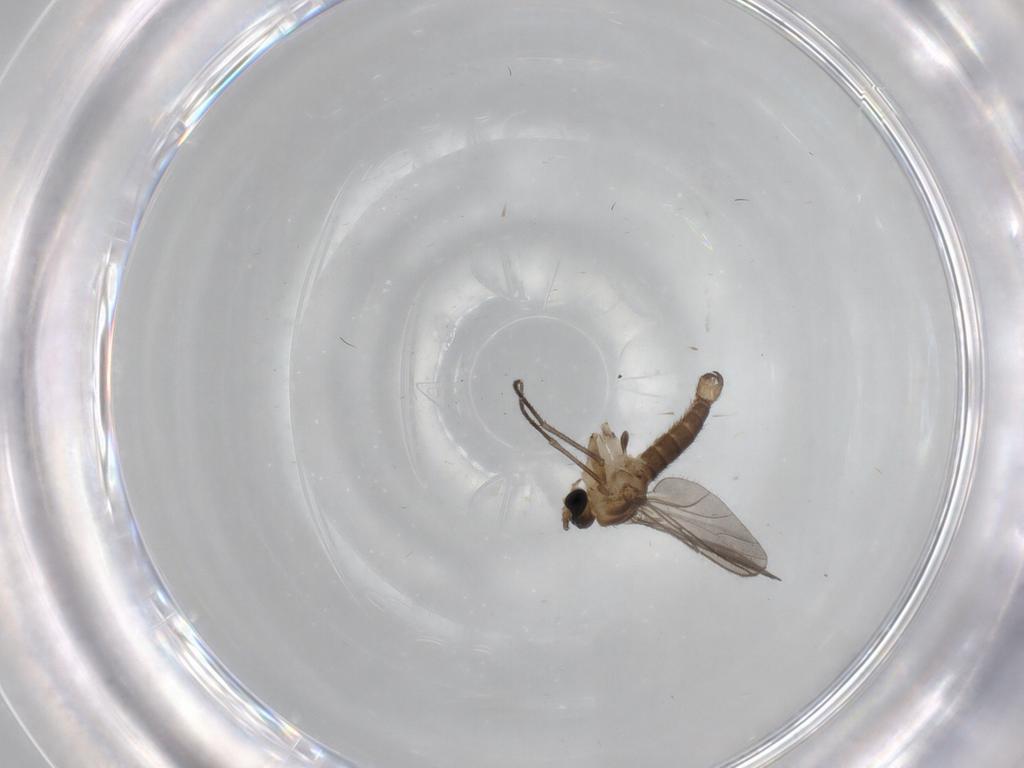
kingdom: Animalia
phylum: Arthropoda
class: Insecta
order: Diptera
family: Sciaridae
